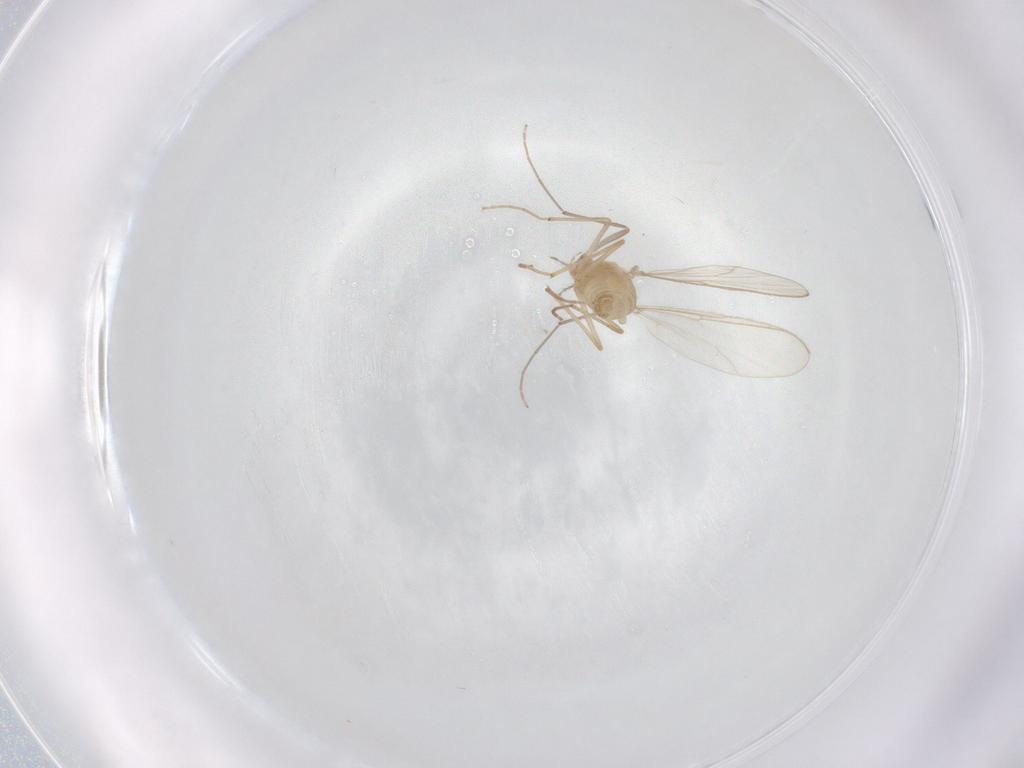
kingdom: Animalia
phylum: Arthropoda
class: Insecta
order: Diptera
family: Chironomidae
